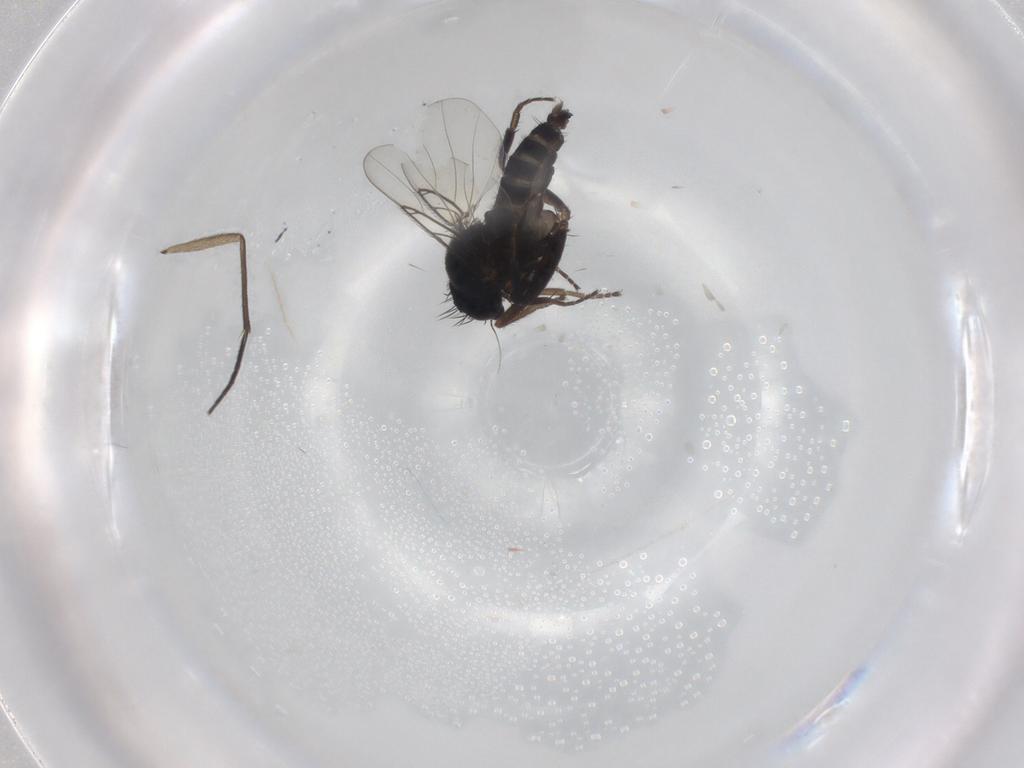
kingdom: Animalia
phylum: Arthropoda
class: Insecta
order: Diptera
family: Phoridae
